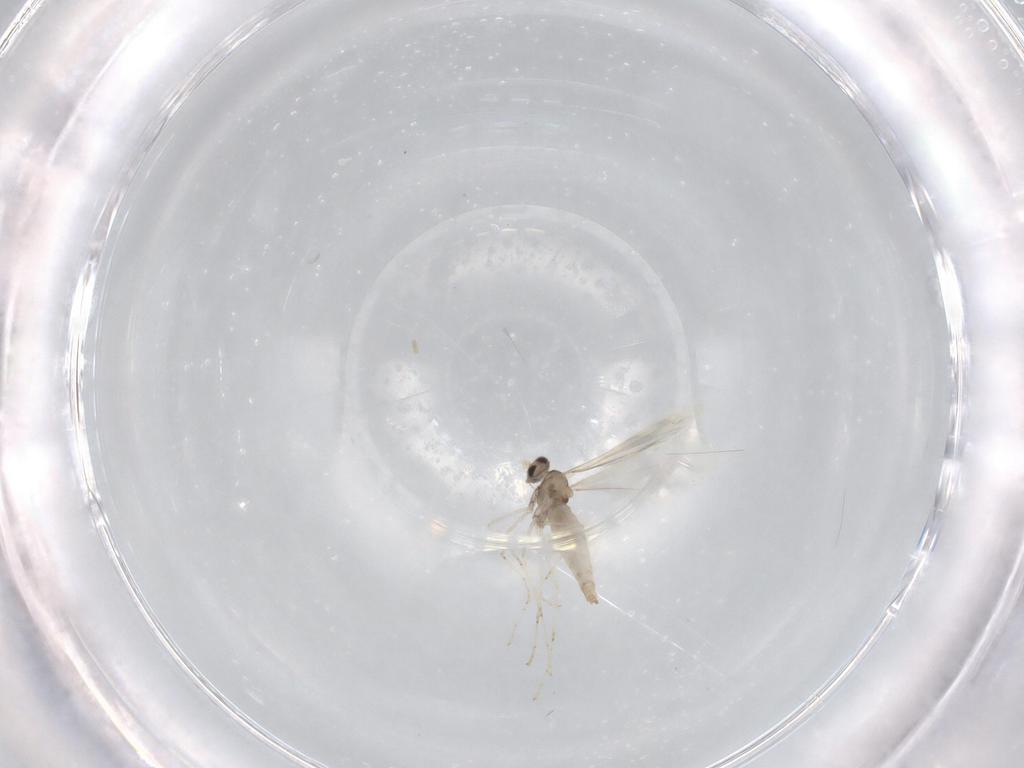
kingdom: Animalia
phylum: Arthropoda
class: Insecta
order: Diptera
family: Cecidomyiidae
